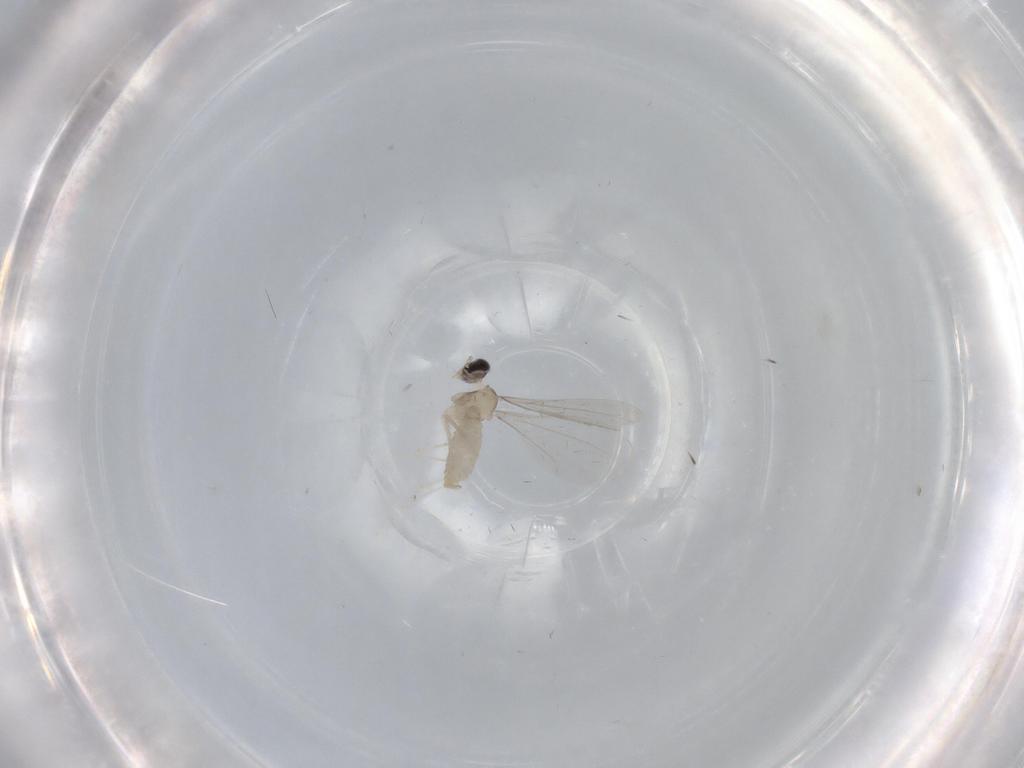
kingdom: Animalia
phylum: Arthropoda
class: Insecta
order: Diptera
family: Cecidomyiidae
